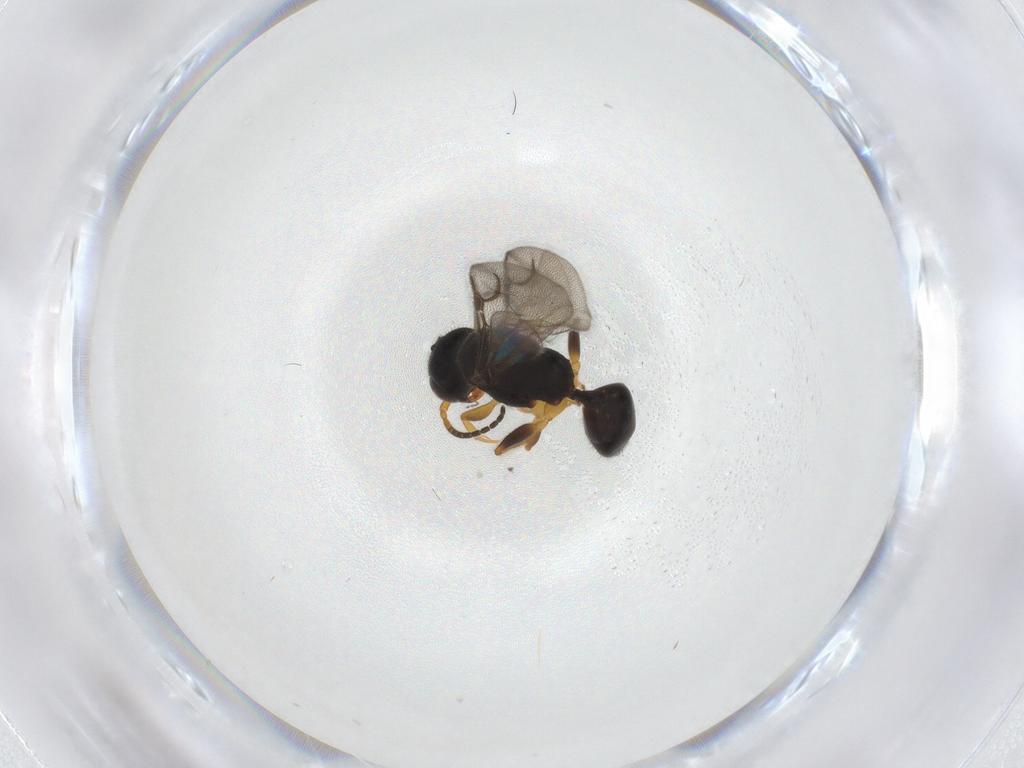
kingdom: Animalia
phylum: Arthropoda
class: Insecta
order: Hymenoptera
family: Bethylidae
